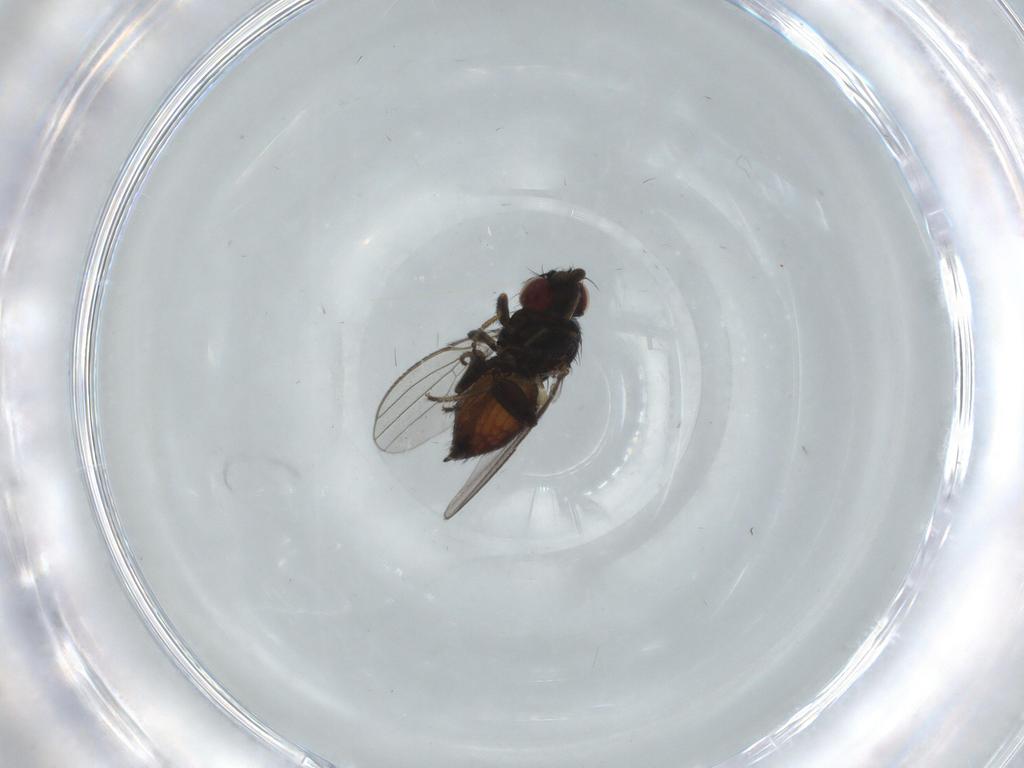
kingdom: Animalia
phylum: Arthropoda
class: Insecta
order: Diptera
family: Milichiidae
